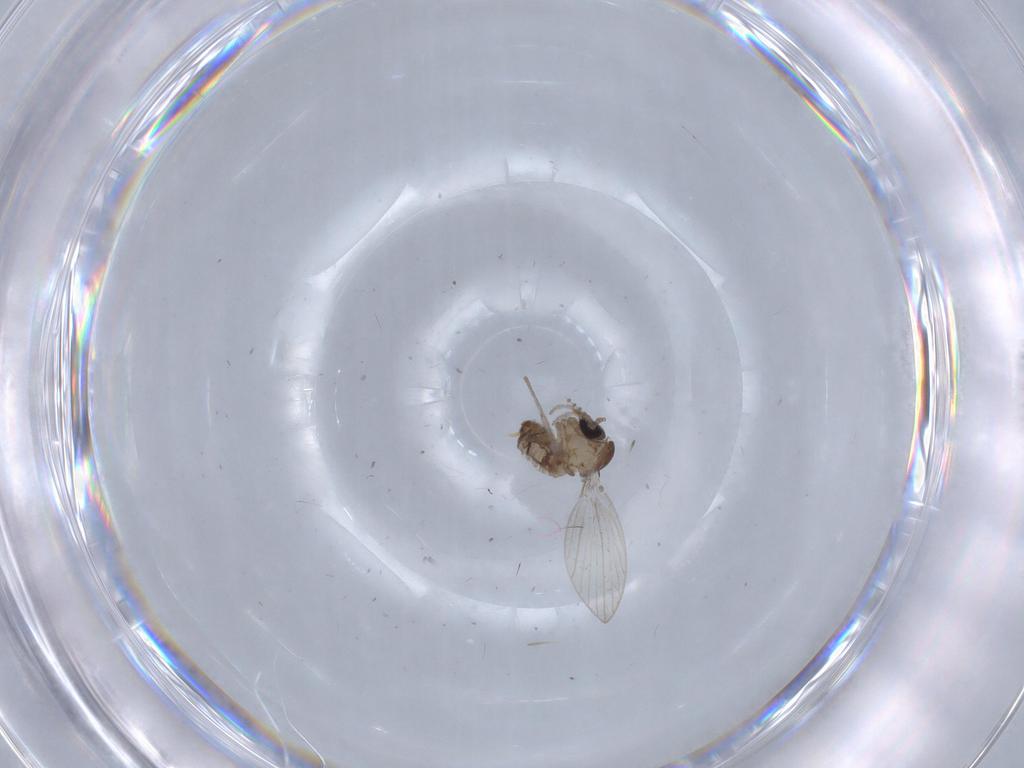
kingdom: Animalia
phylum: Arthropoda
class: Insecta
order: Diptera
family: Psychodidae
